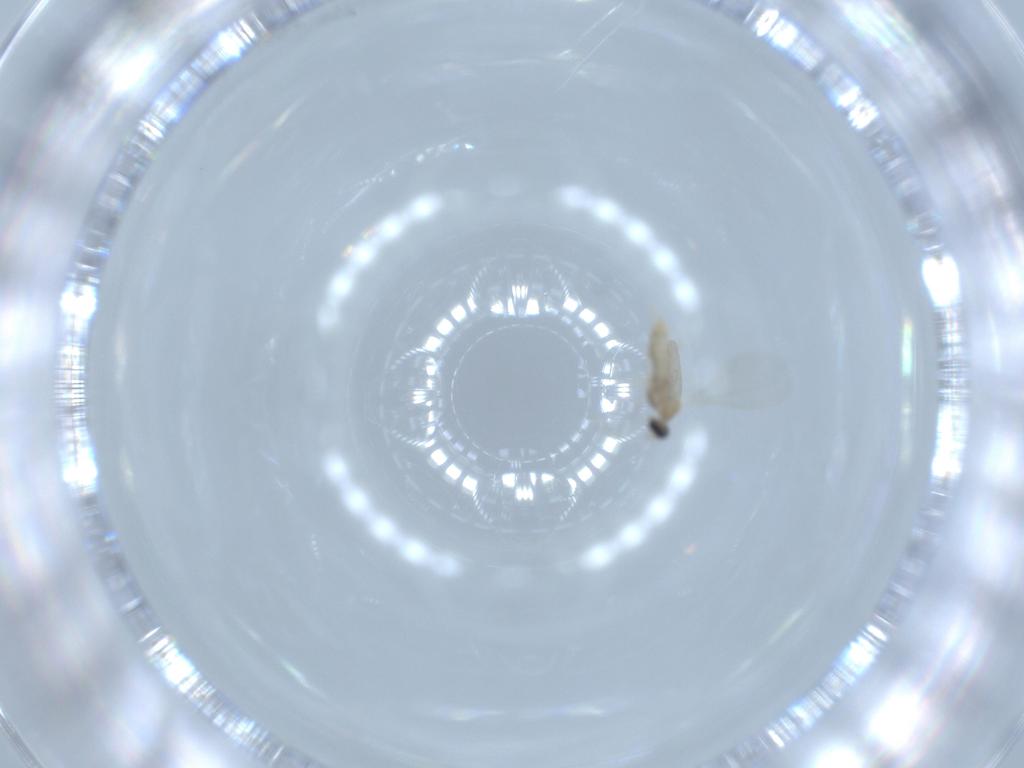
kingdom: Animalia
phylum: Arthropoda
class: Insecta
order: Diptera
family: Cecidomyiidae
